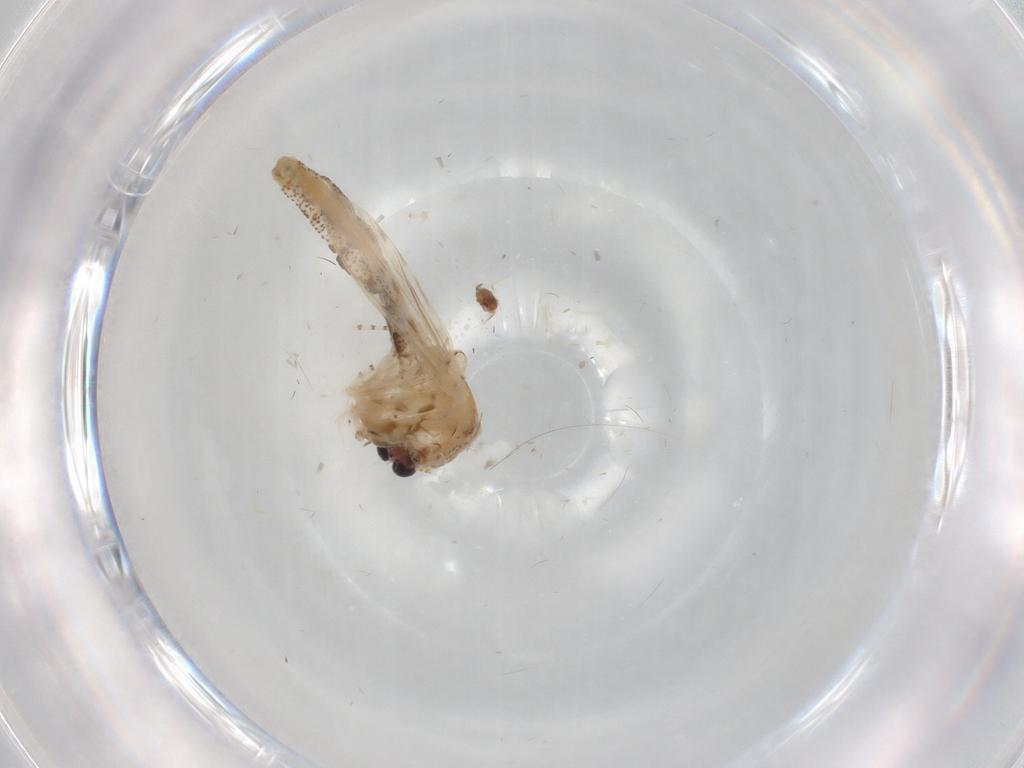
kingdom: Animalia
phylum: Arthropoda
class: Insecta
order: Diptera
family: Chaoboridae
